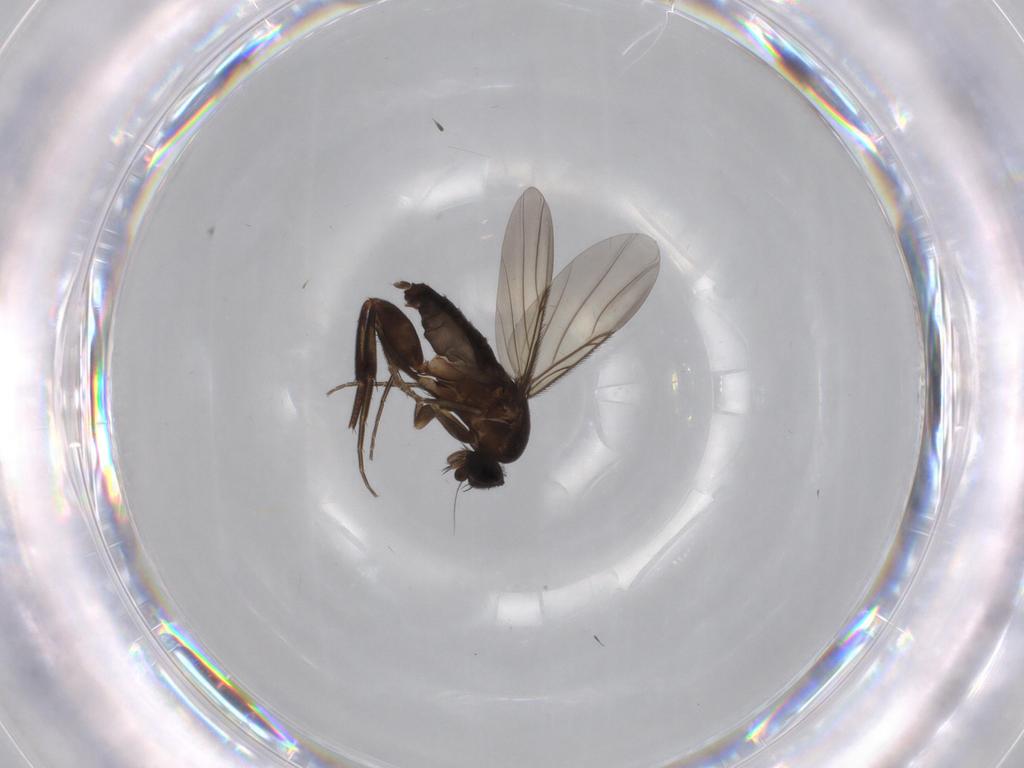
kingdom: Animalia
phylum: Arthropoda
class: Insecta
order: Diptera
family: Phoridae
